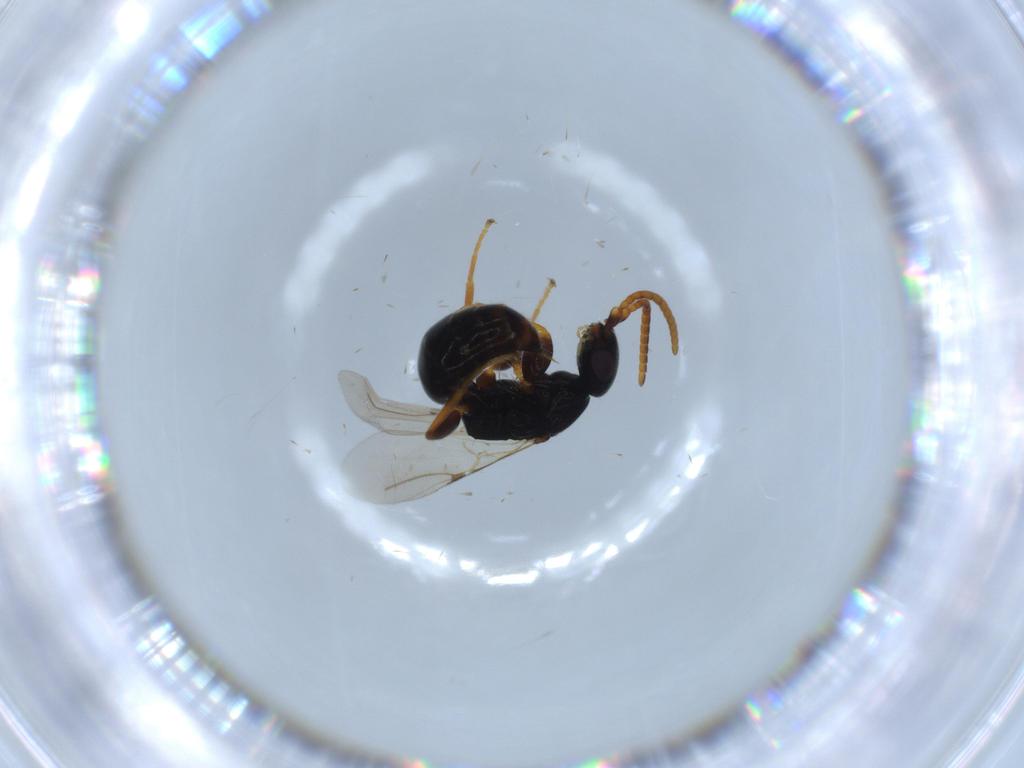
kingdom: Animalia
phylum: Arthropoda
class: Insecta
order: Hymenoptera
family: Bethylidae
